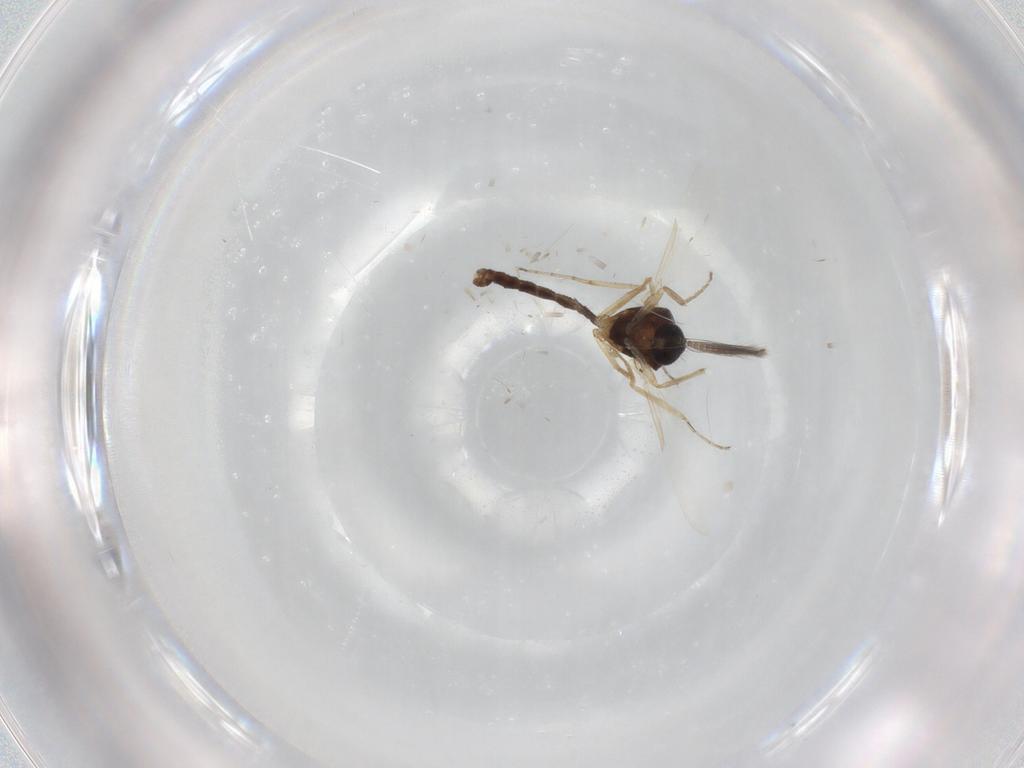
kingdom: Animalia
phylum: Arthropoda
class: Insecta
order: Diptera
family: Ceratopogonidae
